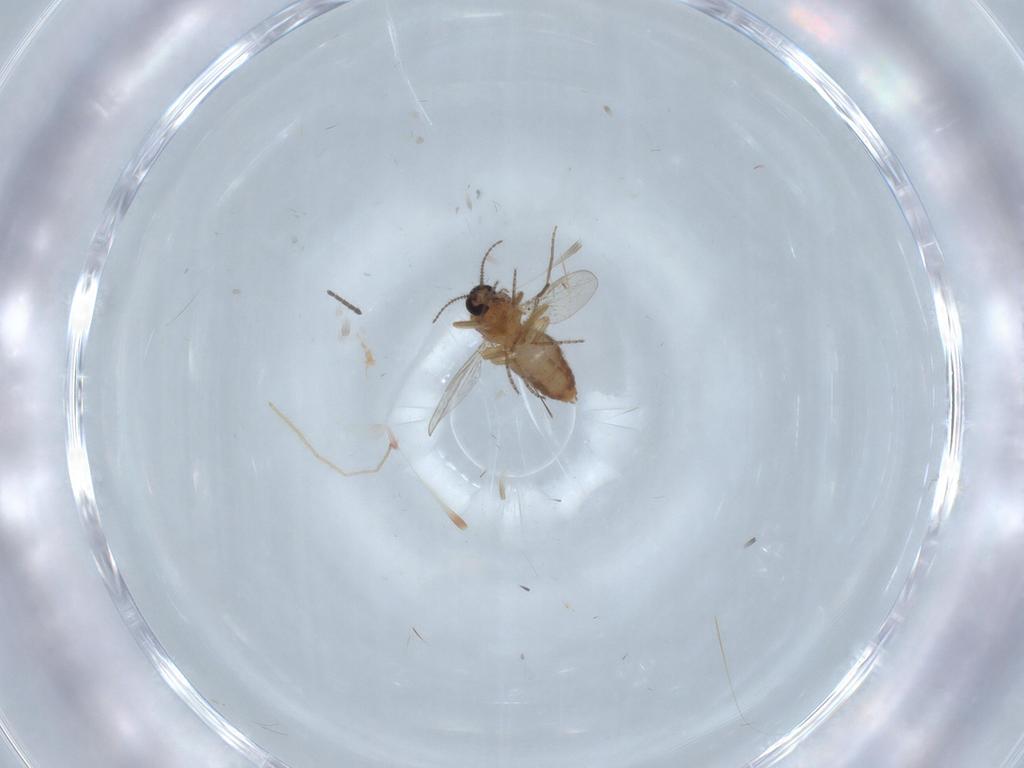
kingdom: Animalia
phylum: Arthropoda
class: Insecta
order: Diptera
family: Ceratopogonidae
